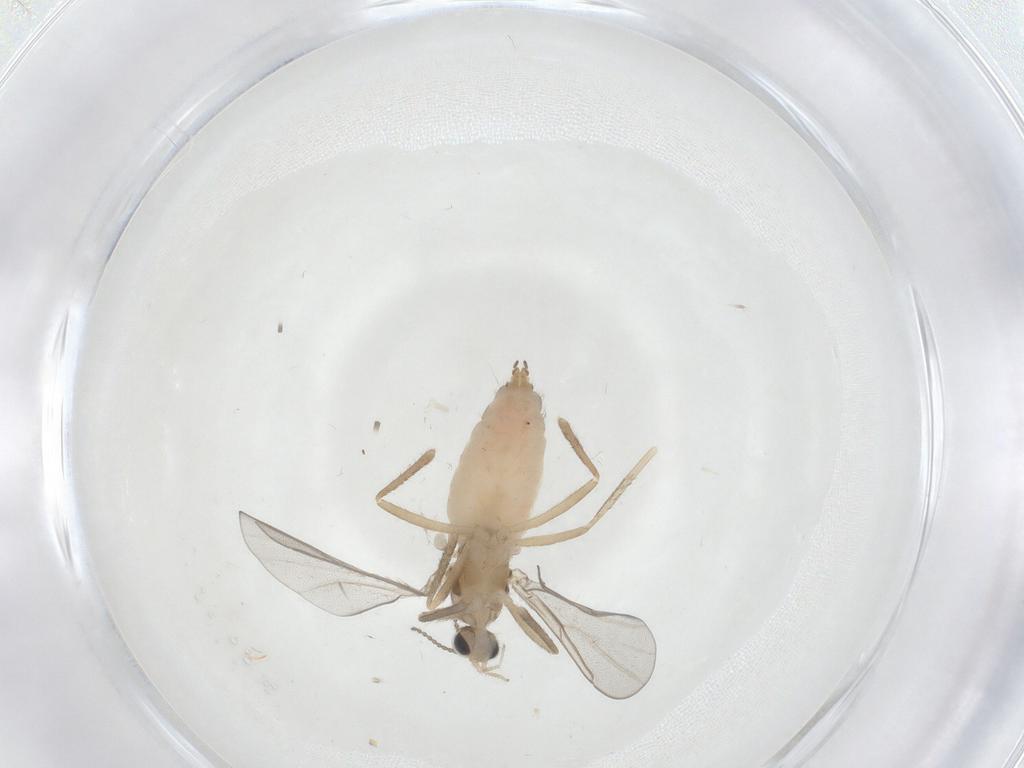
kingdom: Animalia
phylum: Arthropoda
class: Insecta
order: Diptera
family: Cecidomyiidae
